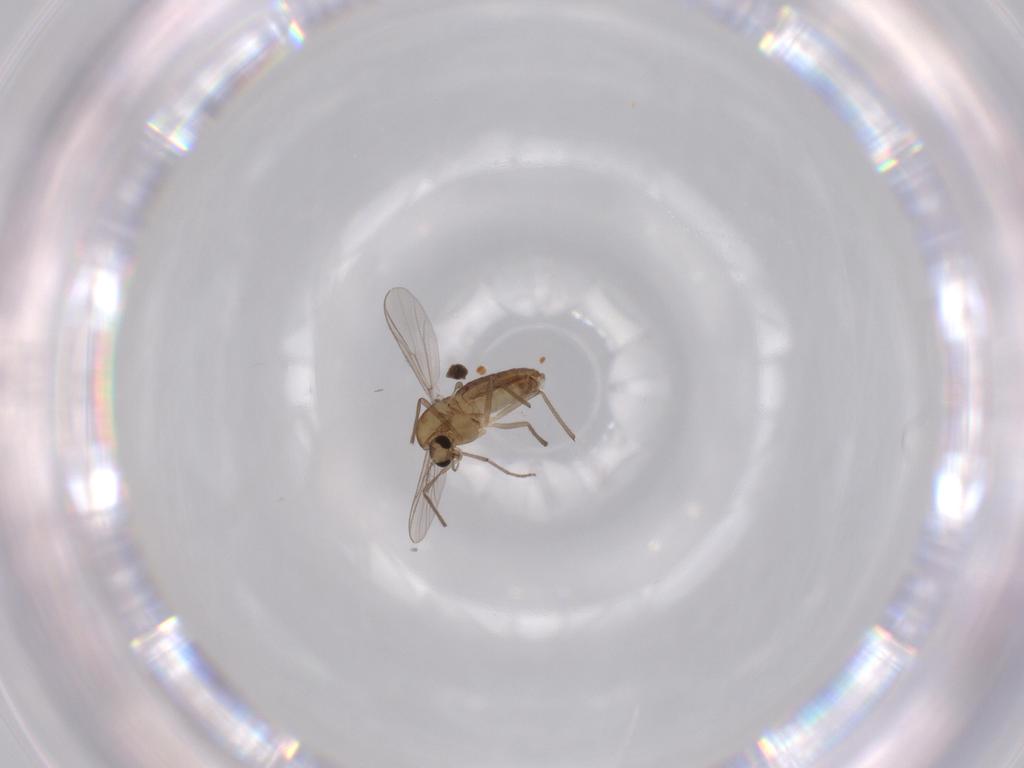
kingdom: Animalia
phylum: Arthropoda
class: Insecta
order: Diptera
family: Chironomidae
